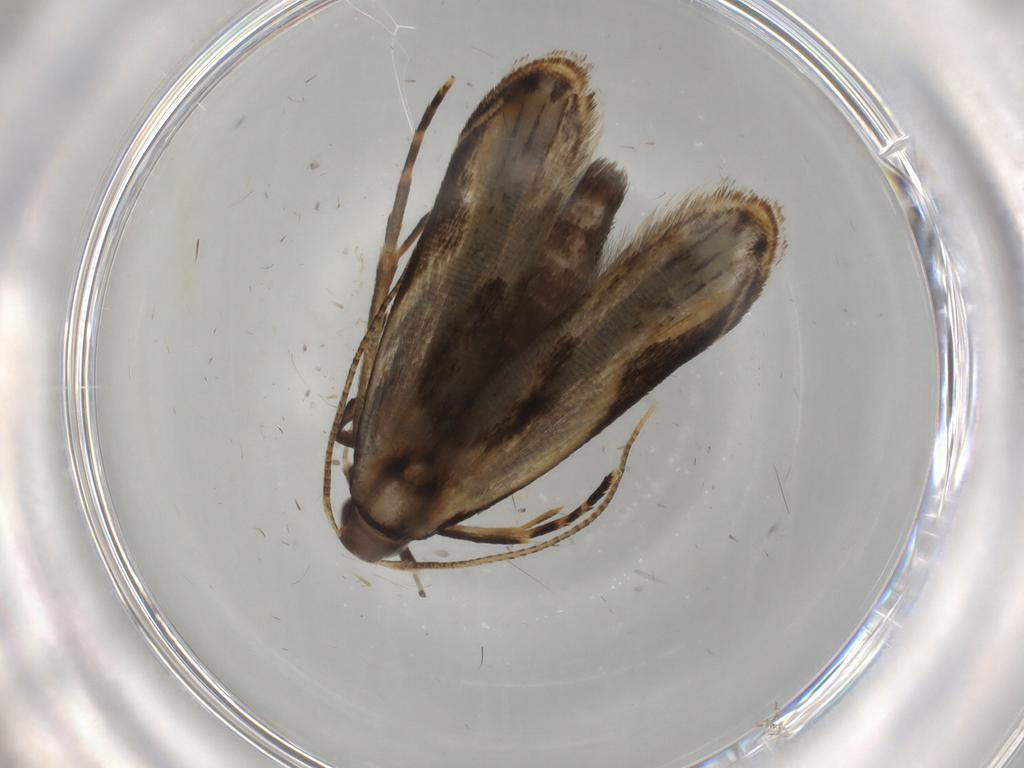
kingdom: Animalia
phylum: Arthropoda
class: Insecta
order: Lepidoptera
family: Gelechiidae
